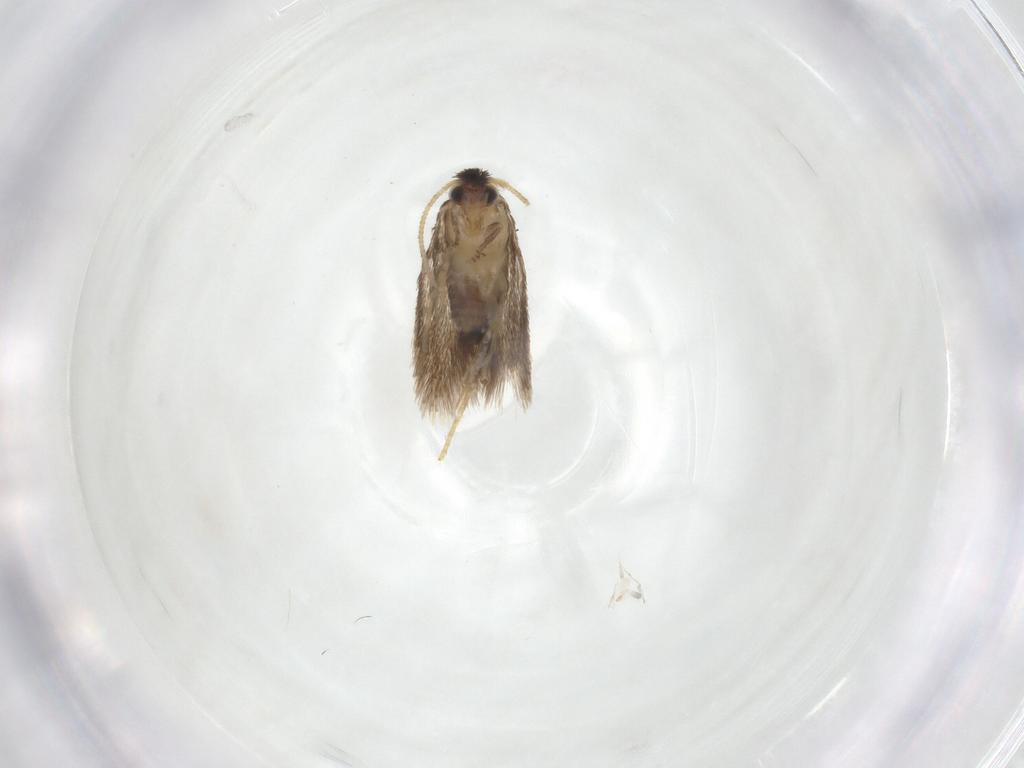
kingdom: Animalia
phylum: Arthropoda
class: Insecta
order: Lepidoptera
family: Nepticulidae
